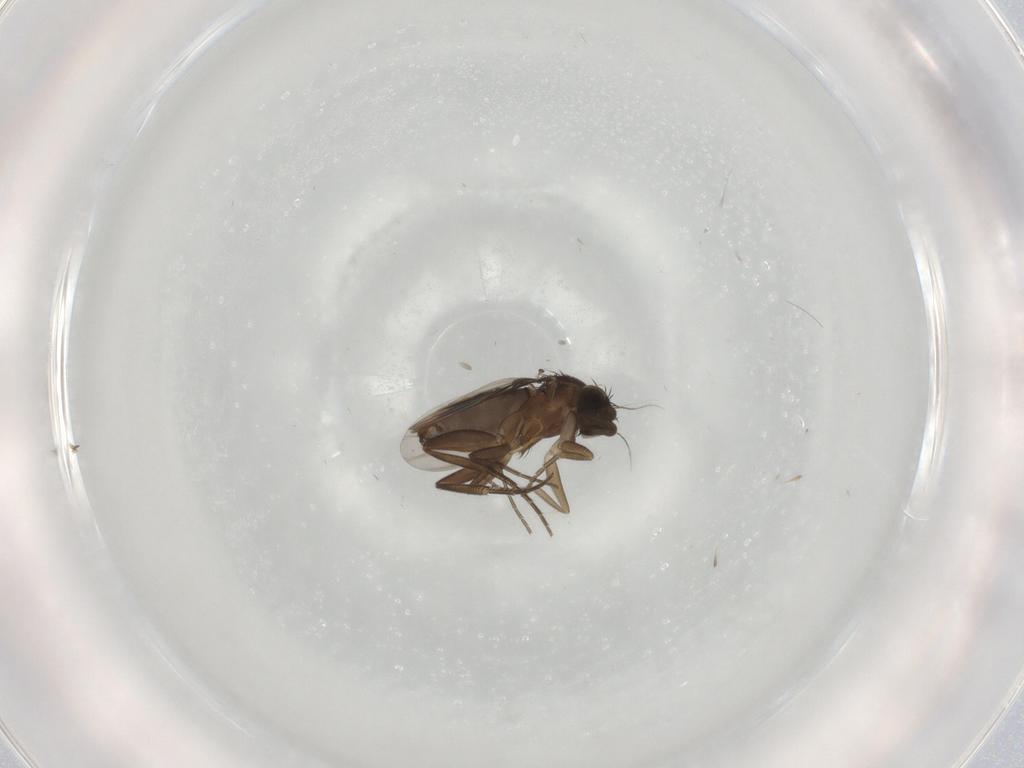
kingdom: Animalia
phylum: Arthropoda
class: Insecta
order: Diptera
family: Phoridae
